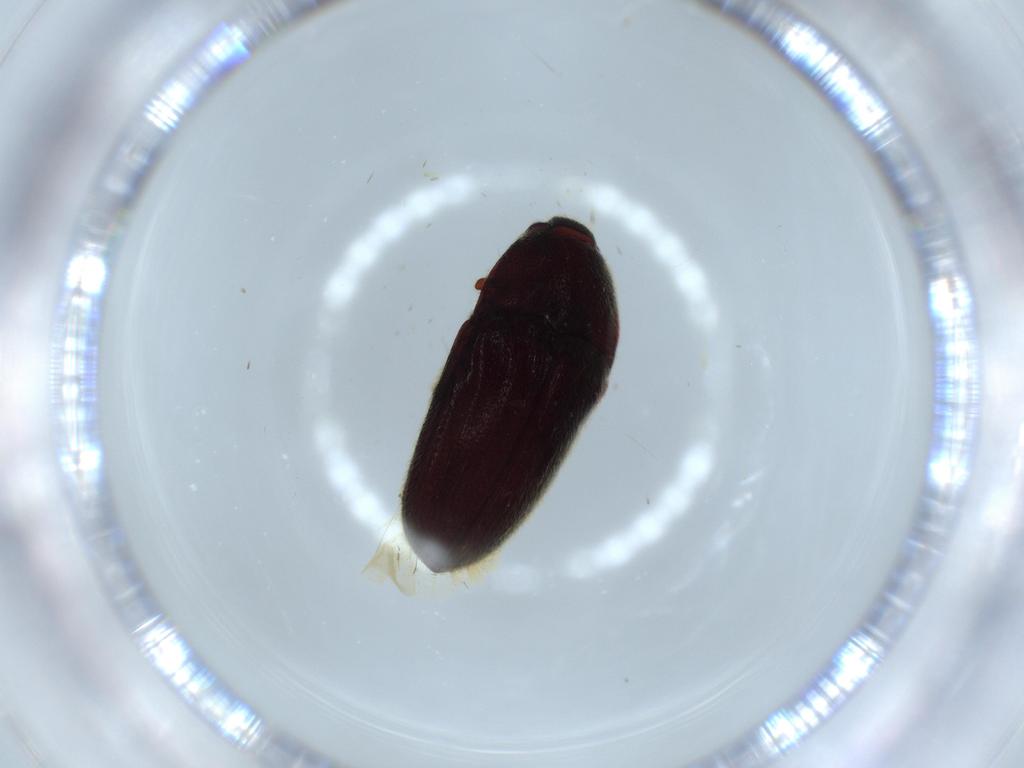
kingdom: Animalia
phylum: Arthropoda
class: Insecta
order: Coleoptera
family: Throscidae
